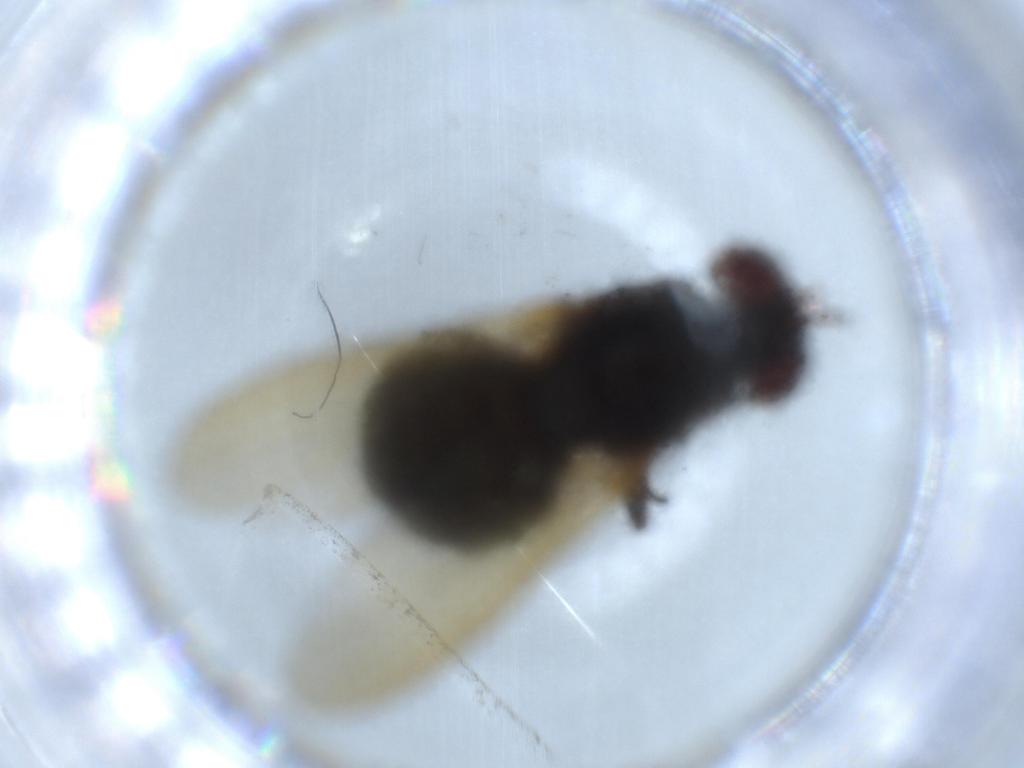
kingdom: Animalia
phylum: Arthropoda
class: Insecta
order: Diptera
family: Lauxaniidae
